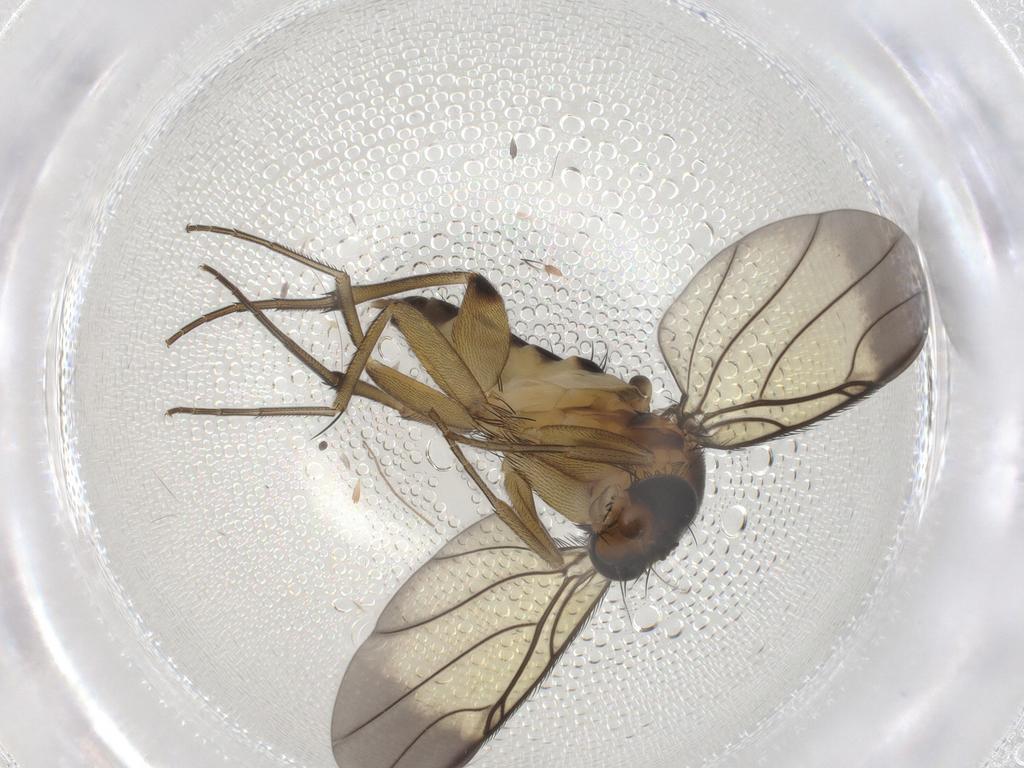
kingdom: Animalia
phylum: Arthropoda
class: Insecta
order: Diptera
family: Phoridae
